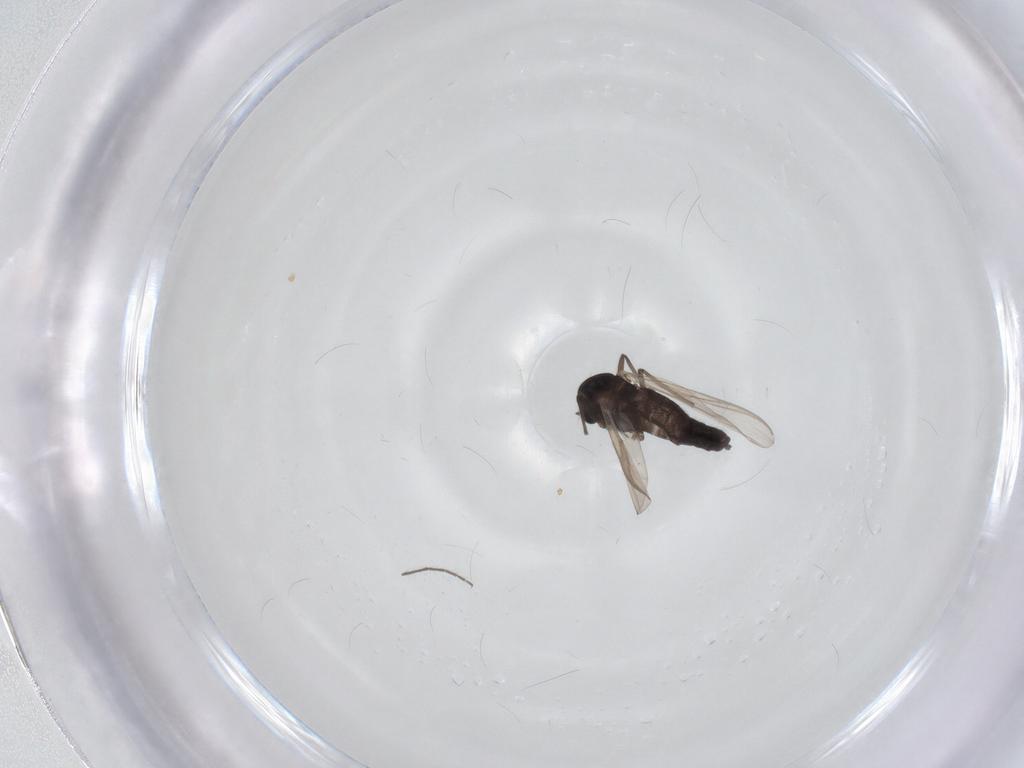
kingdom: Animalia
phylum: Arthropoda
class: Insecta
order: Diptera
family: Chironomidae
